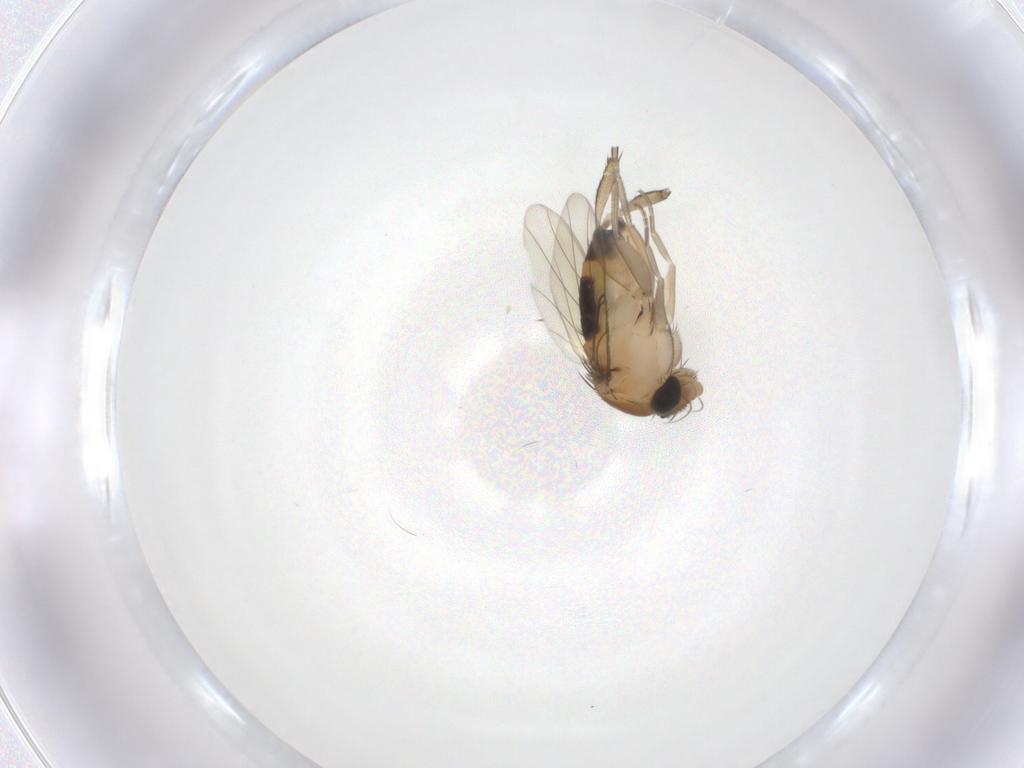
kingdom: Animalia
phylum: Arthropoda
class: Insecta
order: Diptera
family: Phoridae
